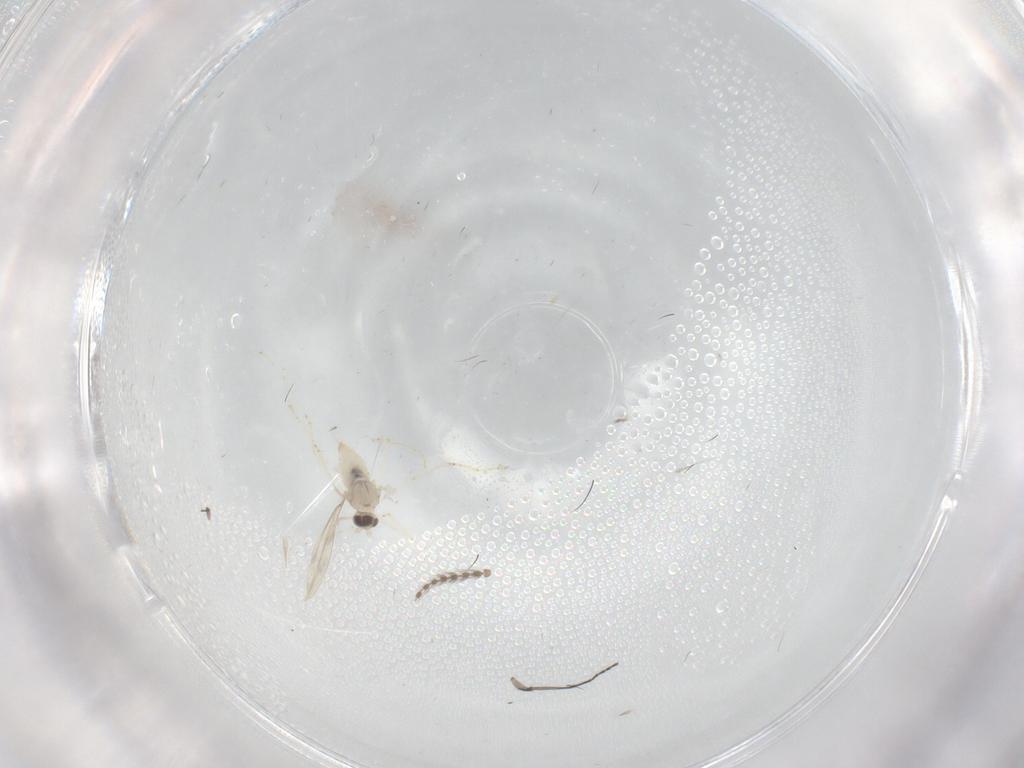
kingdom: Animalia
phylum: Arthropoda
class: Insecta
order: Diptera
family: Psychodidae
